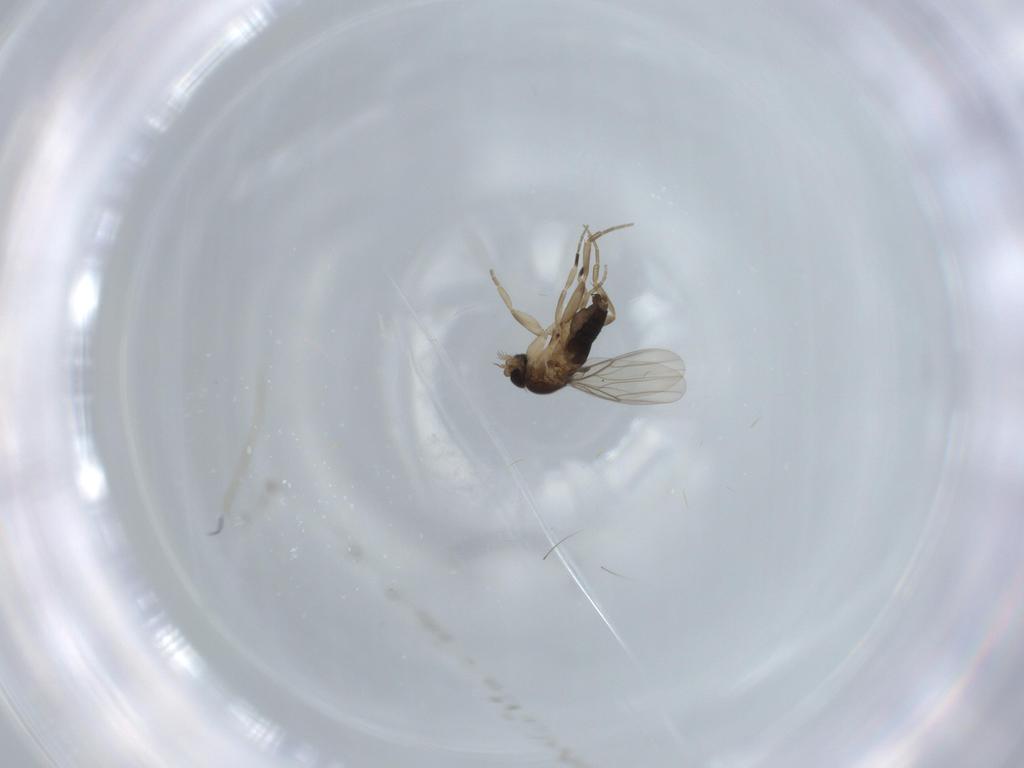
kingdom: Animalia
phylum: Arthropoda
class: Insecta
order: Diptera
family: Phoridae
